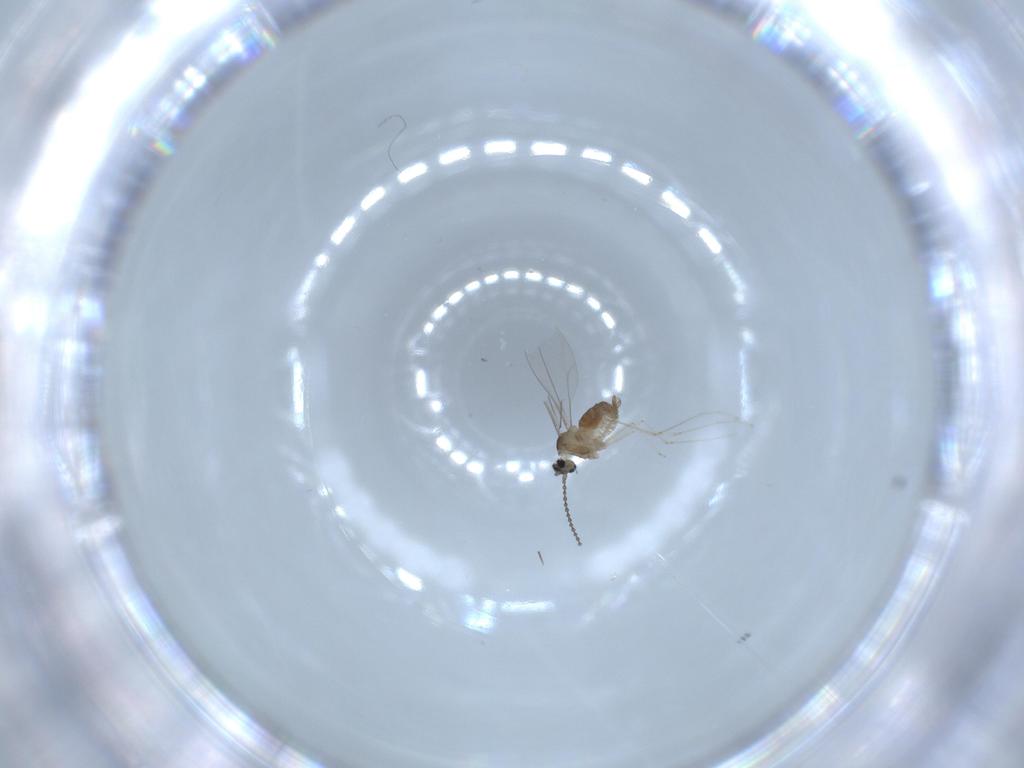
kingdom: Animalia
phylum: Arthropoda
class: Insecta
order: Diptera
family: Cecidomyiidae
